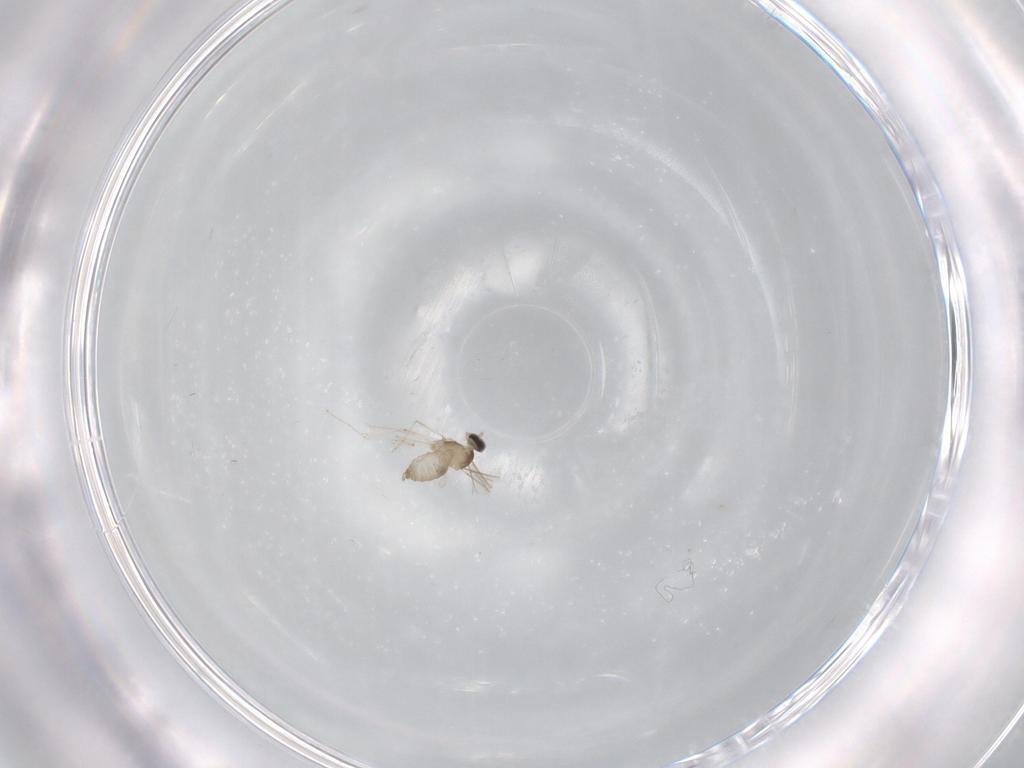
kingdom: Animalia
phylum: Arthropoda
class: Insecta
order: Diptera
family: Cecidomyiidae
